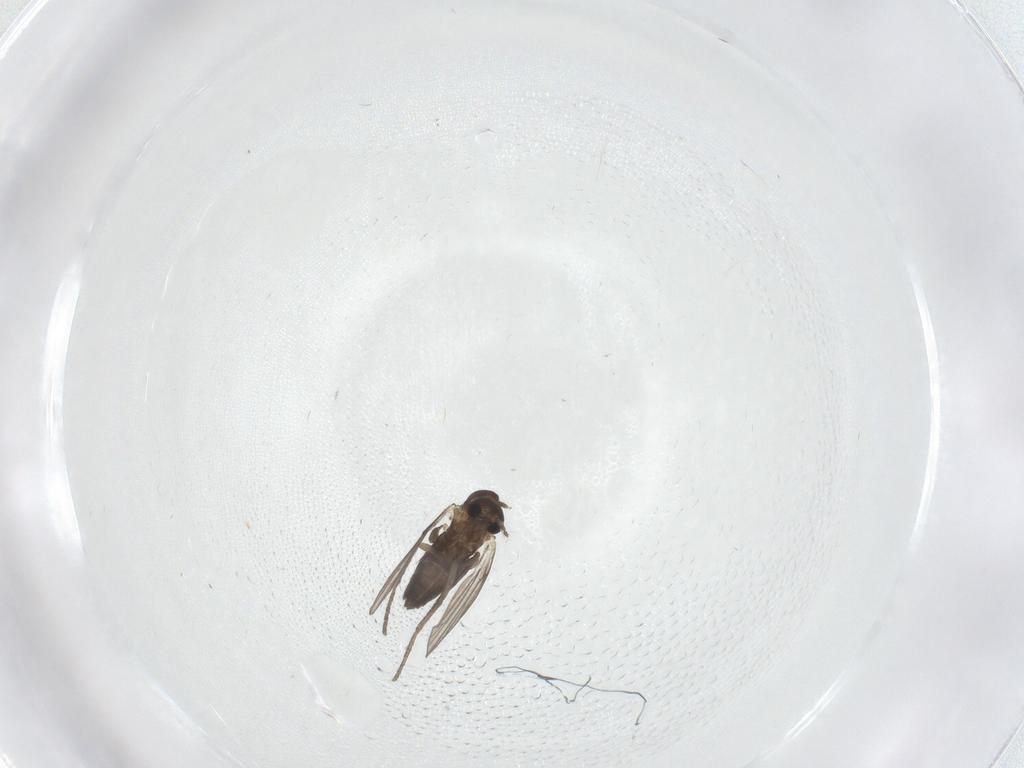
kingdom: Animalia
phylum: Arthropoda
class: Insecta
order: Diptera
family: Psychodidae
